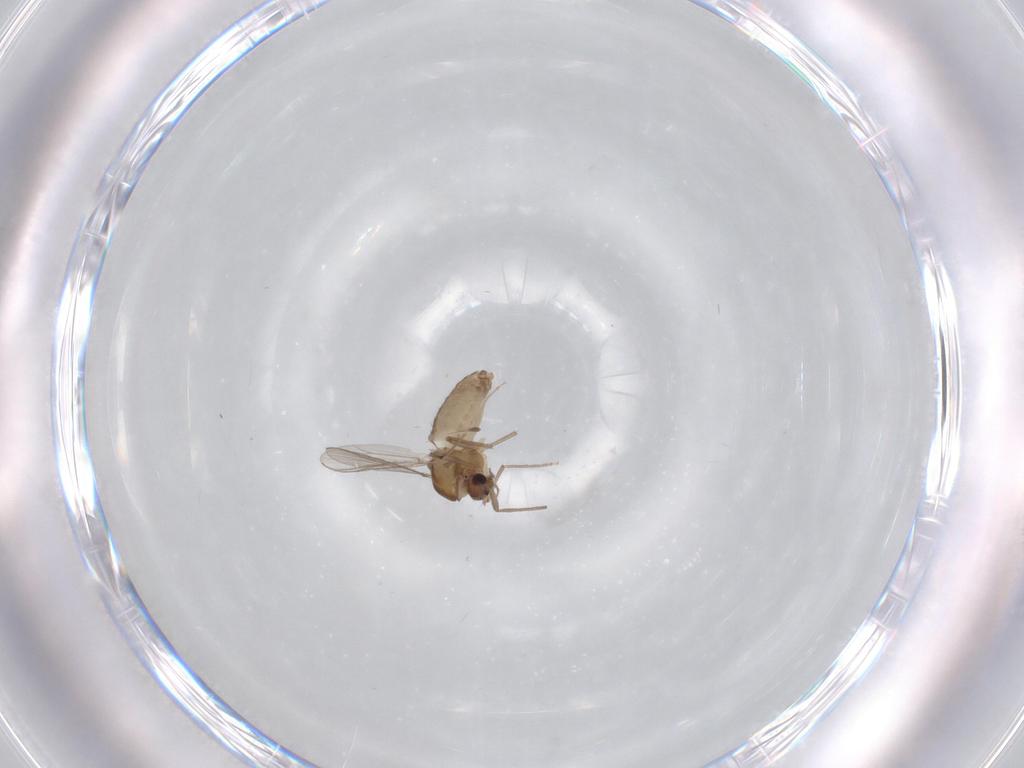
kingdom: Animalia
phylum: Arthropoda
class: Insecta
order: Diptera
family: Chironomidae
